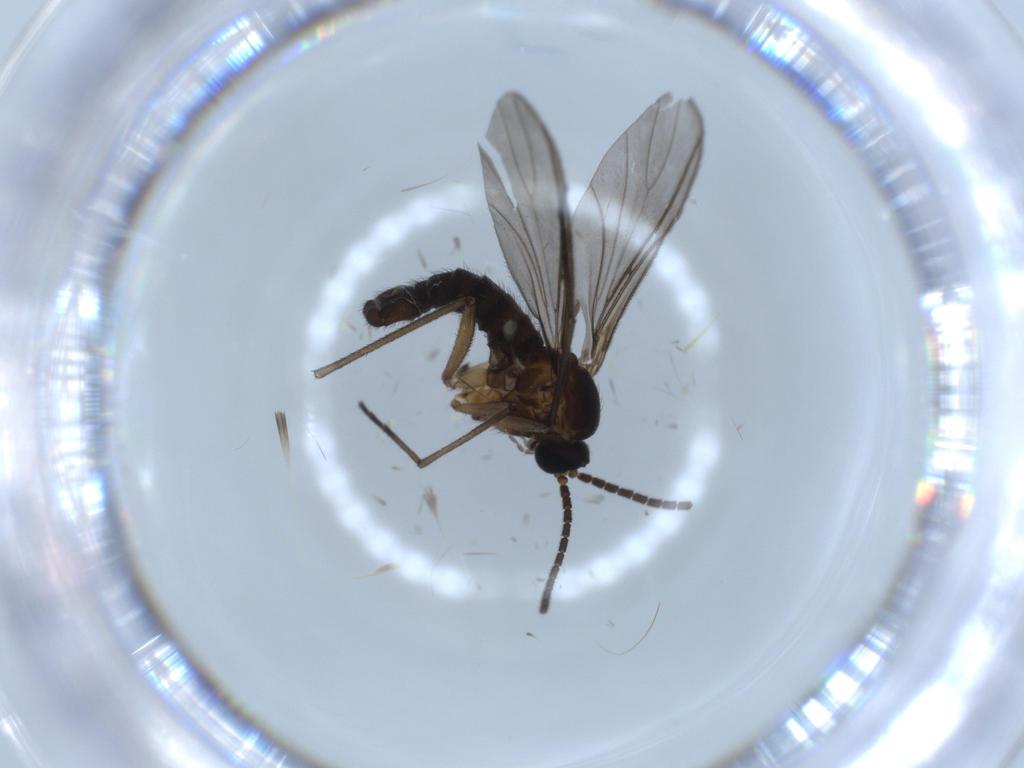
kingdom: Animalia
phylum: Arthropoda
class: Insecta
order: Diptera
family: Sciaridae
